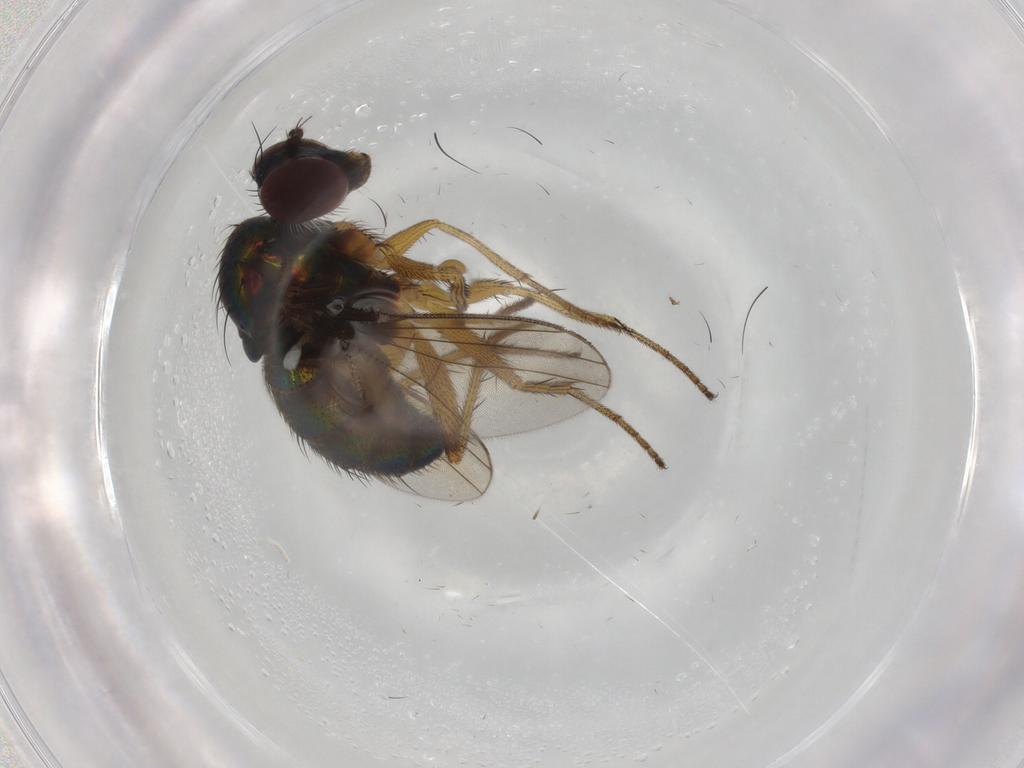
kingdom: Animalia
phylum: Arthropoda
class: Insecta
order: Diptera
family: Dolichopodidae
